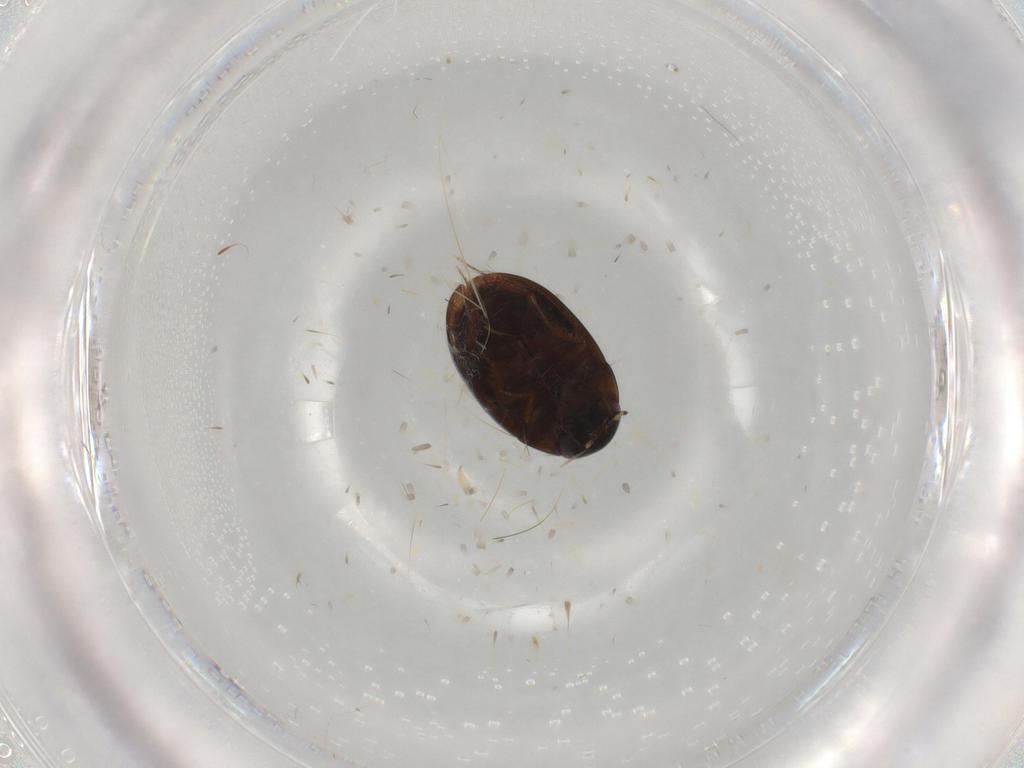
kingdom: Animalia
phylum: Arthropoda
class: Insecta
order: Coleoptera
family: Hydrophilidae
